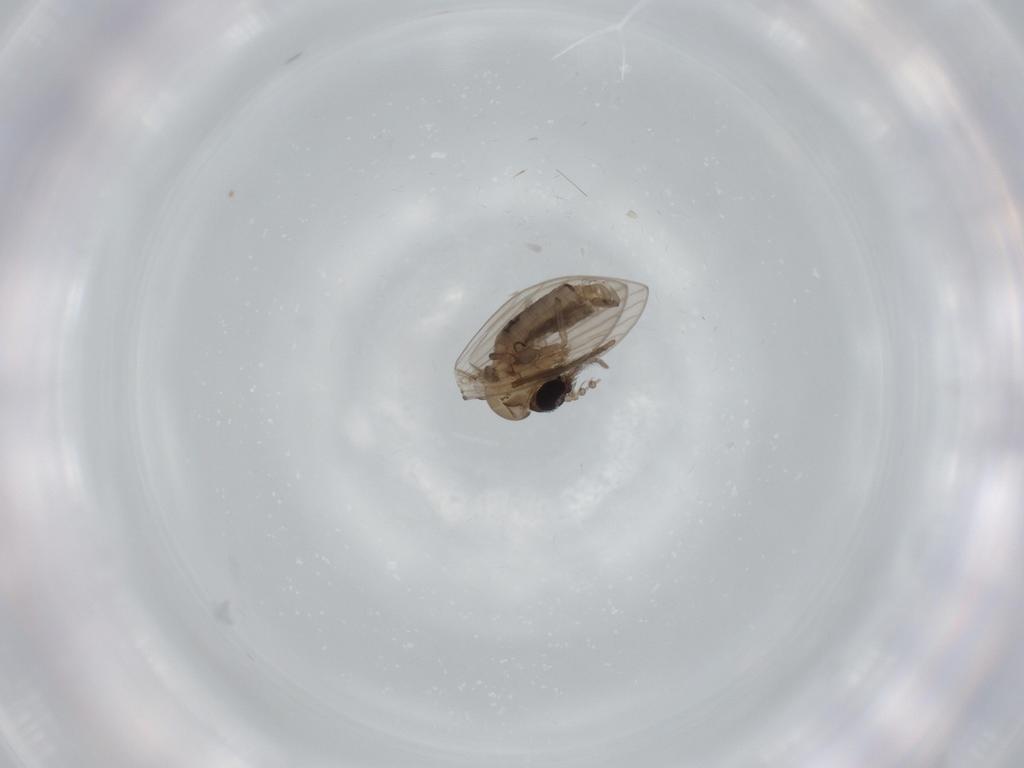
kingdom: Animalia
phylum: Arthropoda
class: Insecta
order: Diptera
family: Psychodidae
